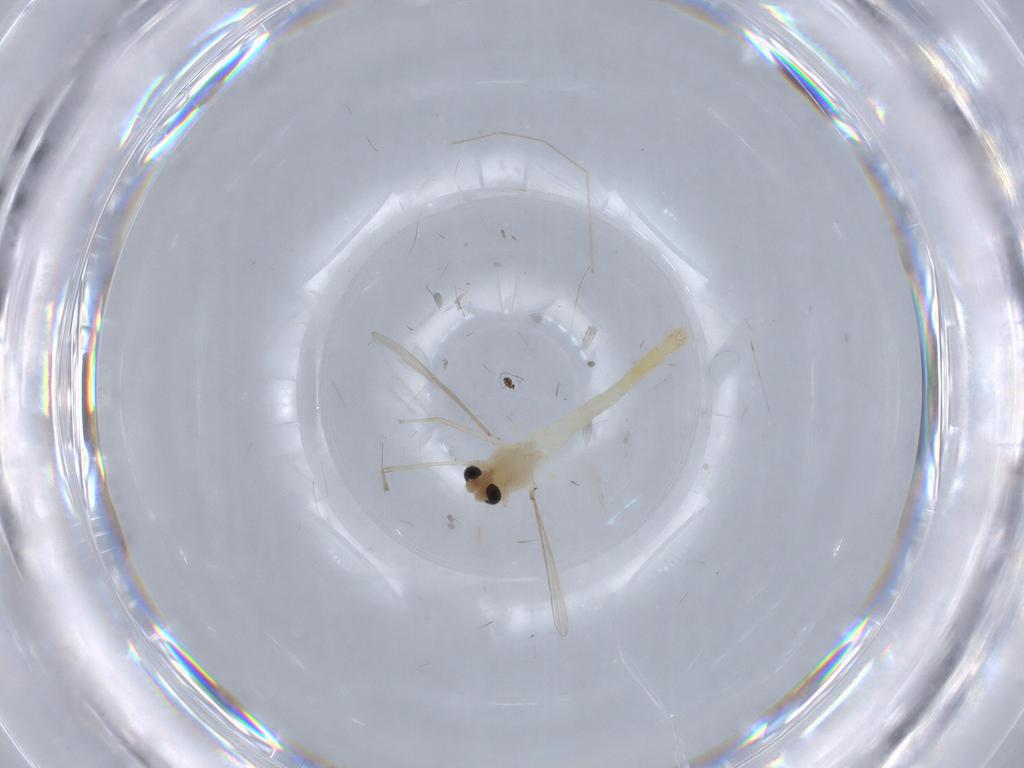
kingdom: Animalia
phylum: Arthropoda
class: Insecta
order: Diptera
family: Chironomidae
